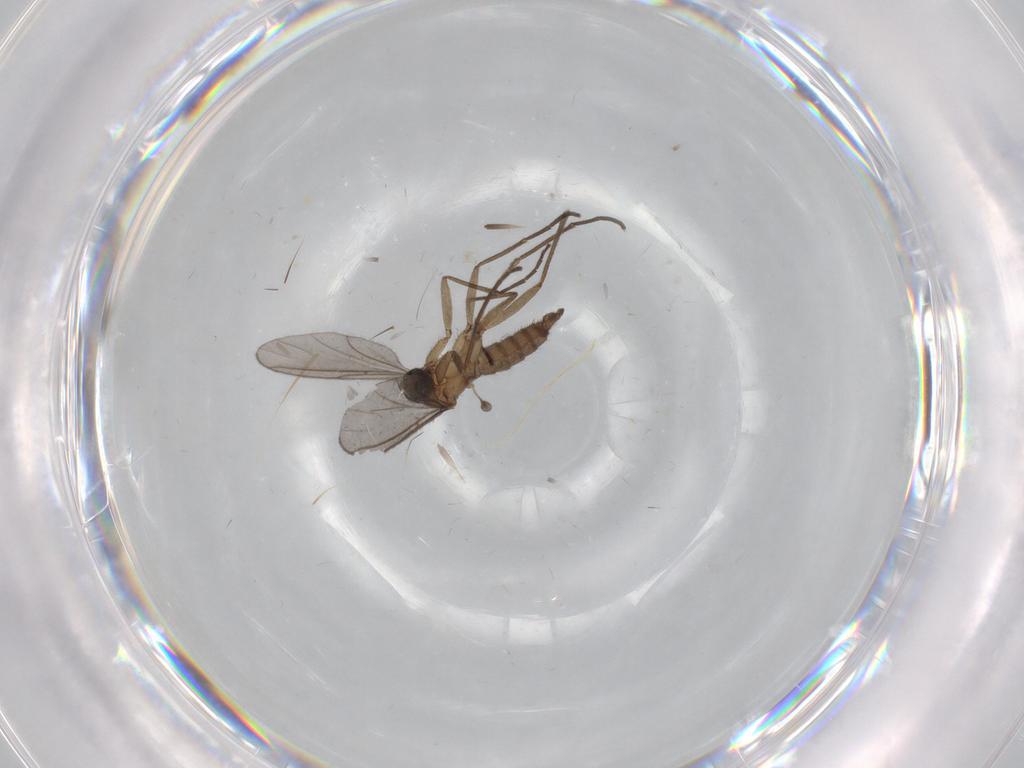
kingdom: Animalia
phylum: Arthropoda
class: Insecta
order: Diptera
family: Sciaridae
